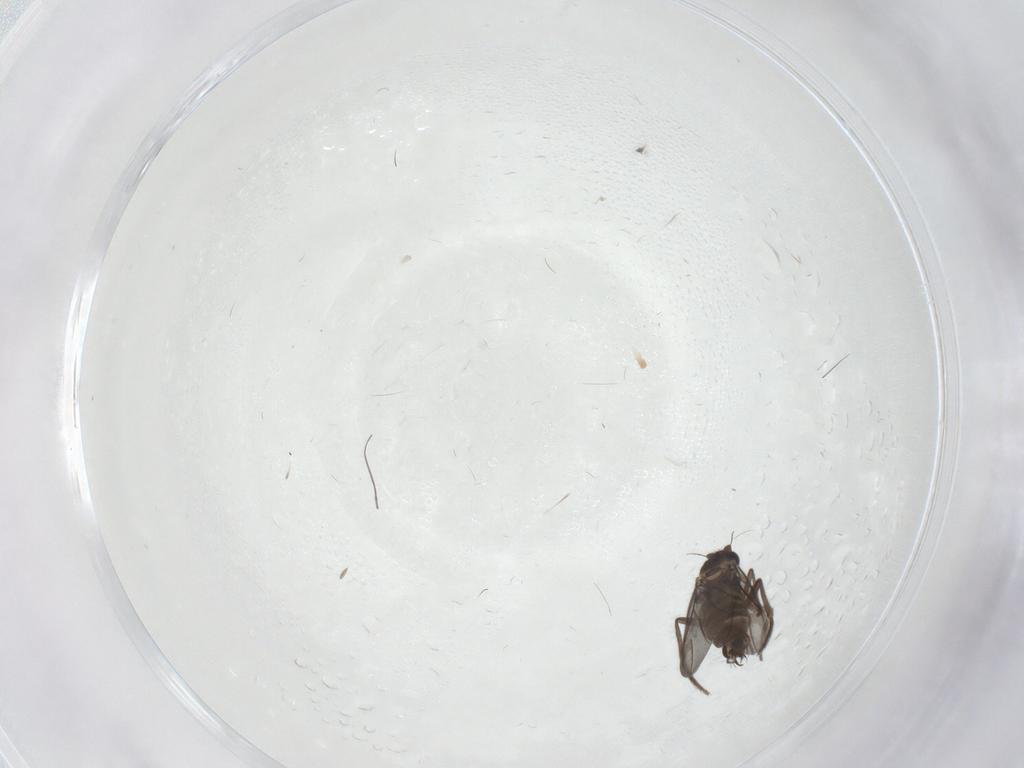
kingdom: Animalia
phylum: Arthropoda
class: Insecta
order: Diptera
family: Phoridae
